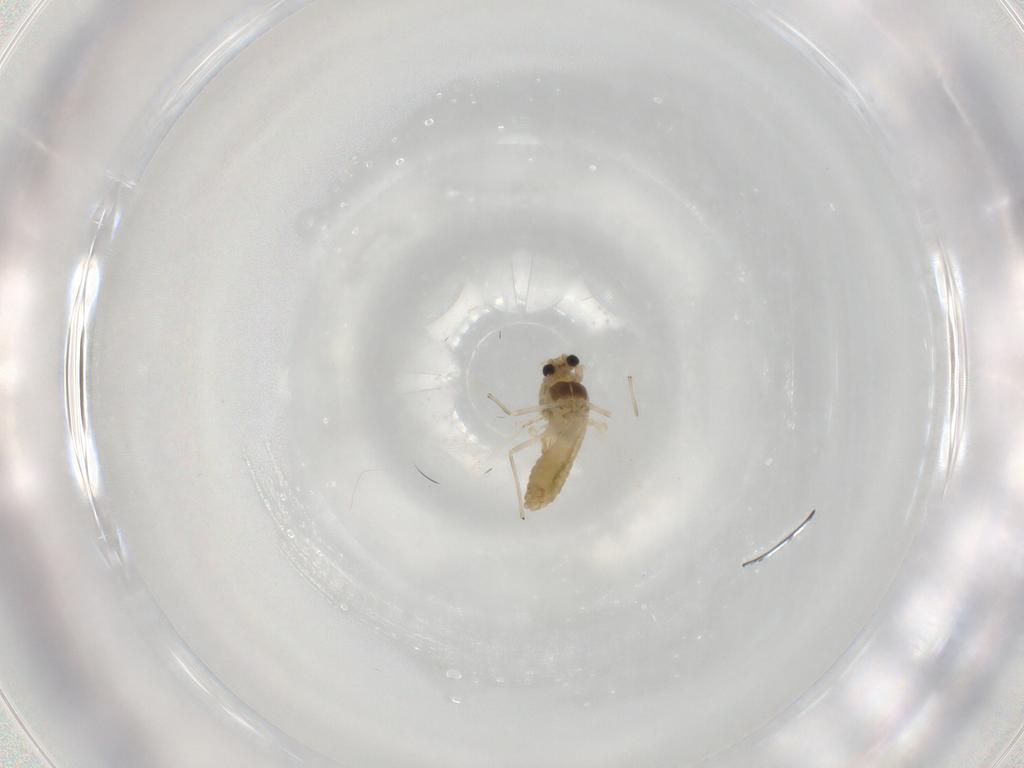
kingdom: Animalia
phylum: Arthropoda
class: Insecta
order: Diptera
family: Chironomidae
